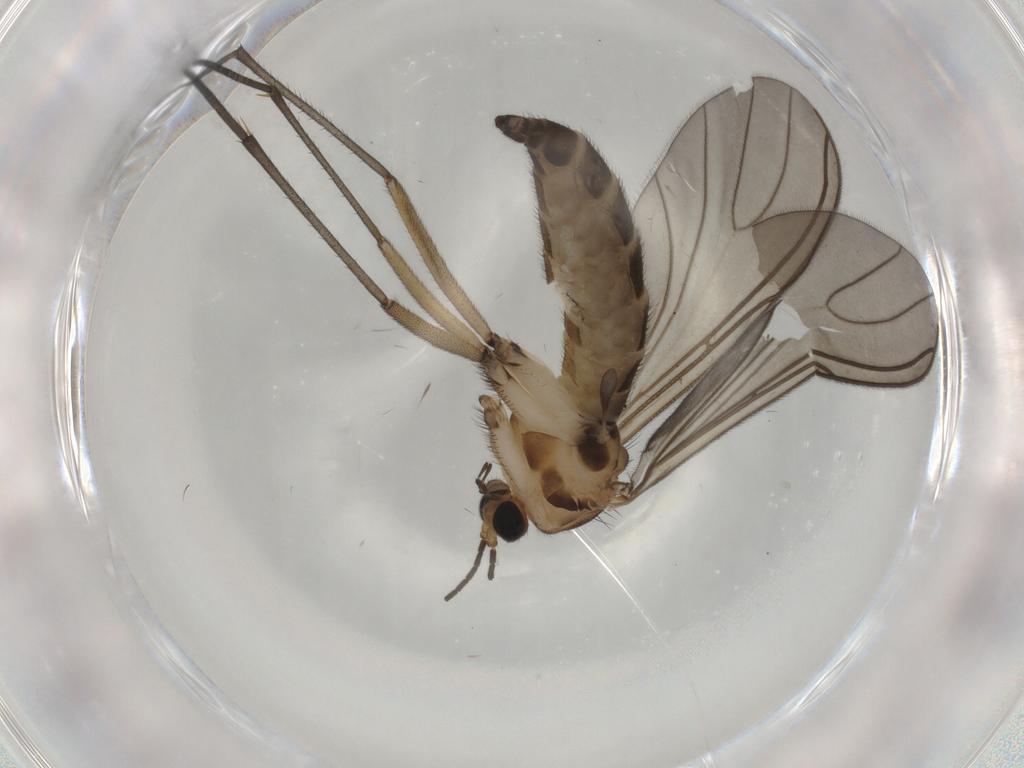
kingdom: Animalia
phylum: Arthropoda
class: Insecta
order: Diptera
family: Sciaridae
